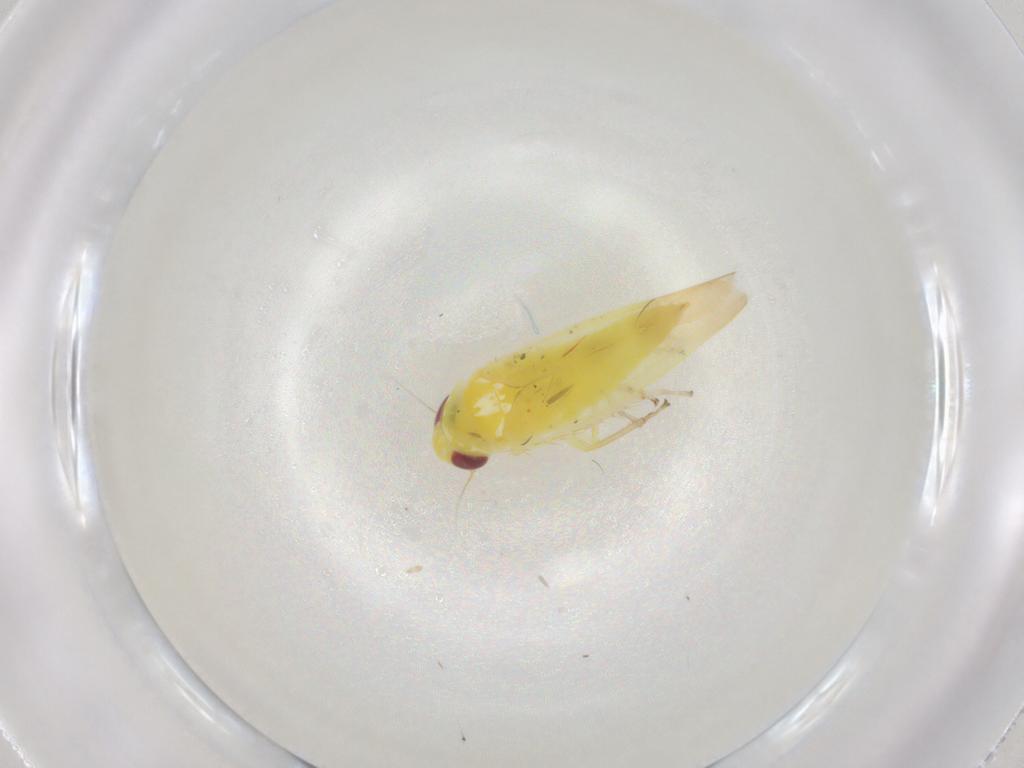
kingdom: Animalia
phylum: Arthropoda
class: Insecta
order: Hemiptera
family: Cicadellidae
